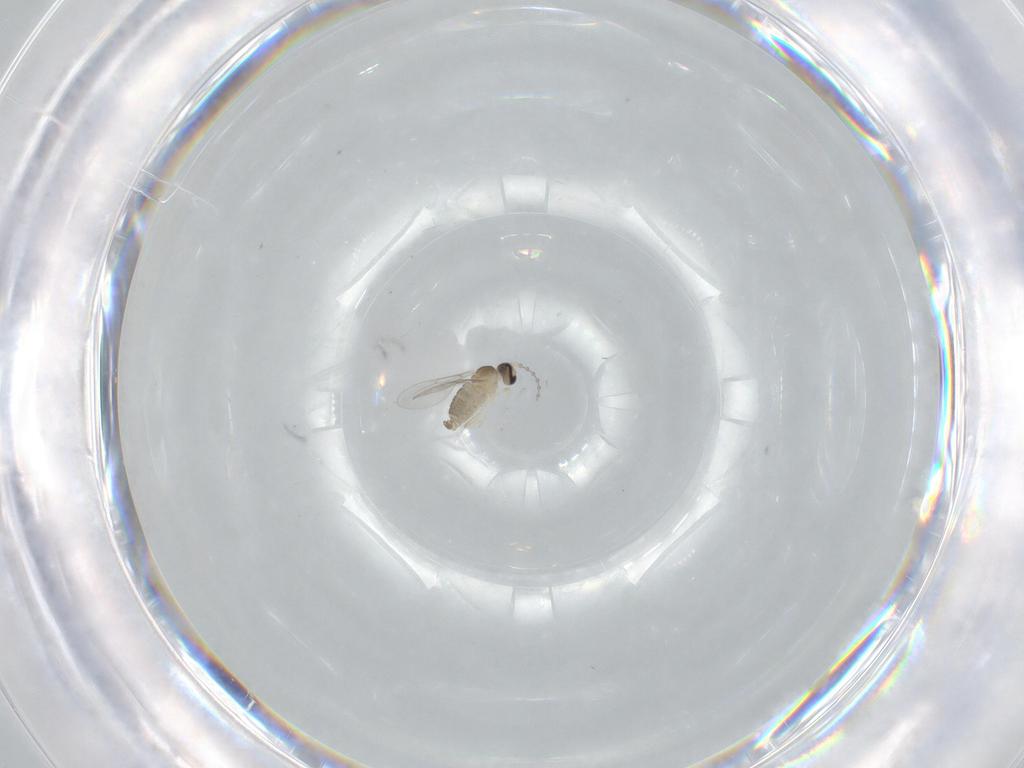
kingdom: Animalia
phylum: Arthropoda
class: Insecta
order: Diptera
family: Cecidomyiidae
